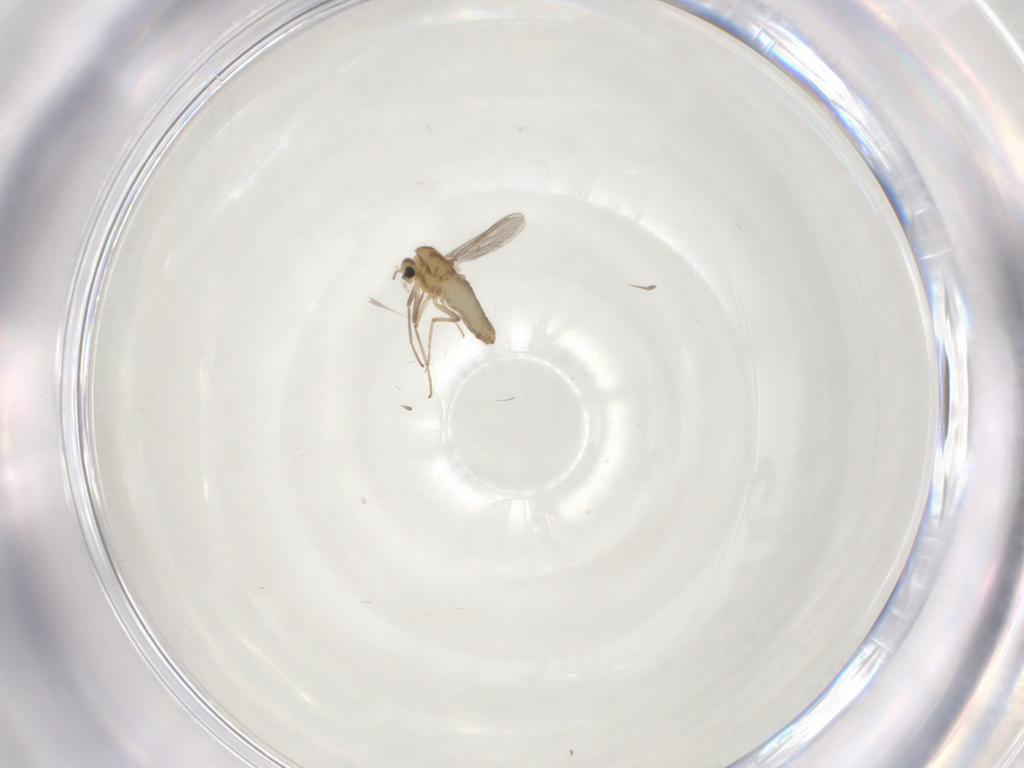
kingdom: Animalia
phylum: Arthropoda
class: Insecta
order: Diptera
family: Chironomidae
